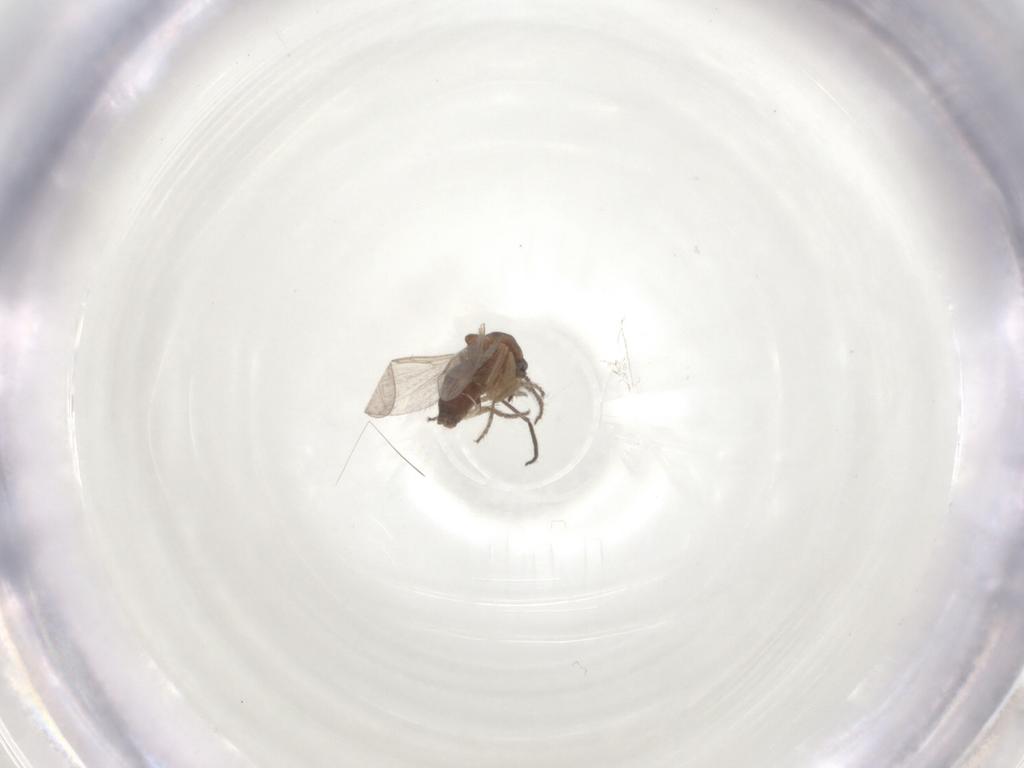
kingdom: Animalia
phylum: Arthropoda
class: Insecta
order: Diptera
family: Ceratopogonidae
